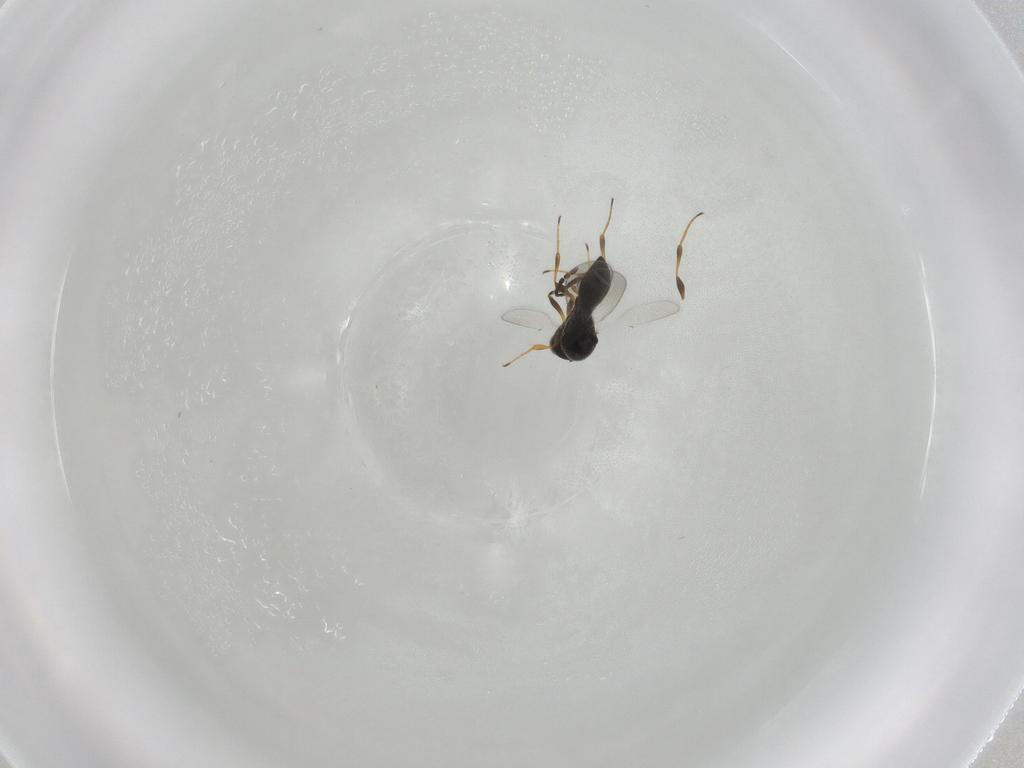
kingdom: Animalia
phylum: Arthropoda
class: Insecta
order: Hymenoptera
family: Platygastridae
